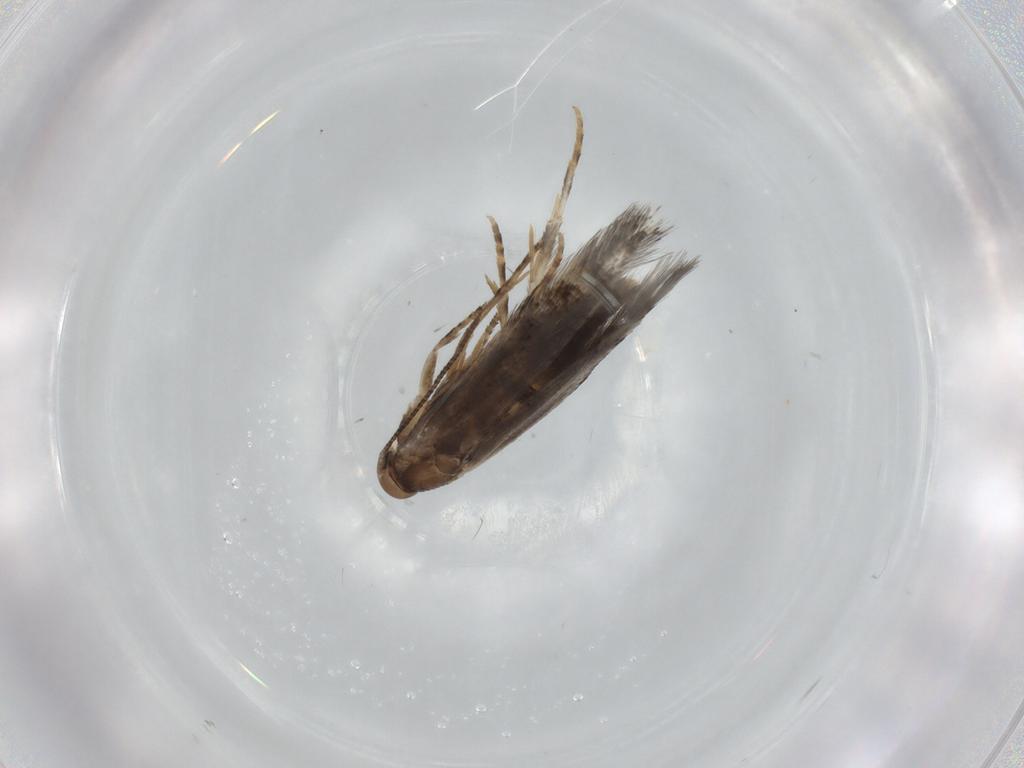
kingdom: Animalia
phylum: Arthropoda
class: Insecta
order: Lepidoptera
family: Elachistidae
